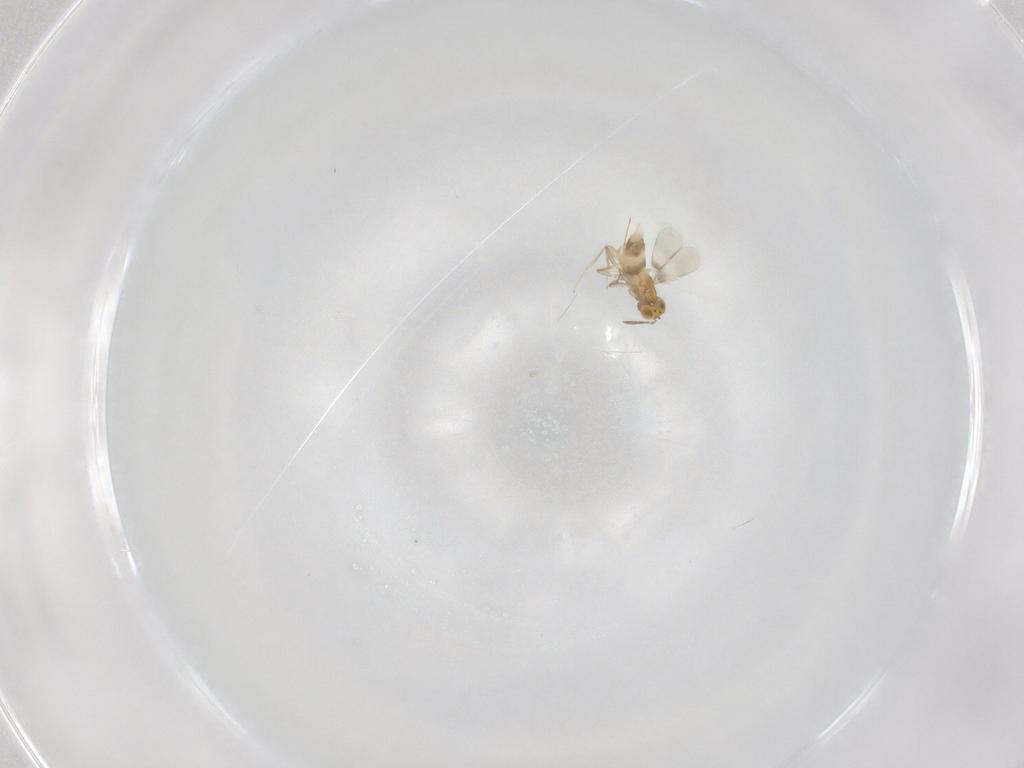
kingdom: Animalia
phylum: Arthropoda
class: Insecta
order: Hymenoptera
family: Aphelinidae
